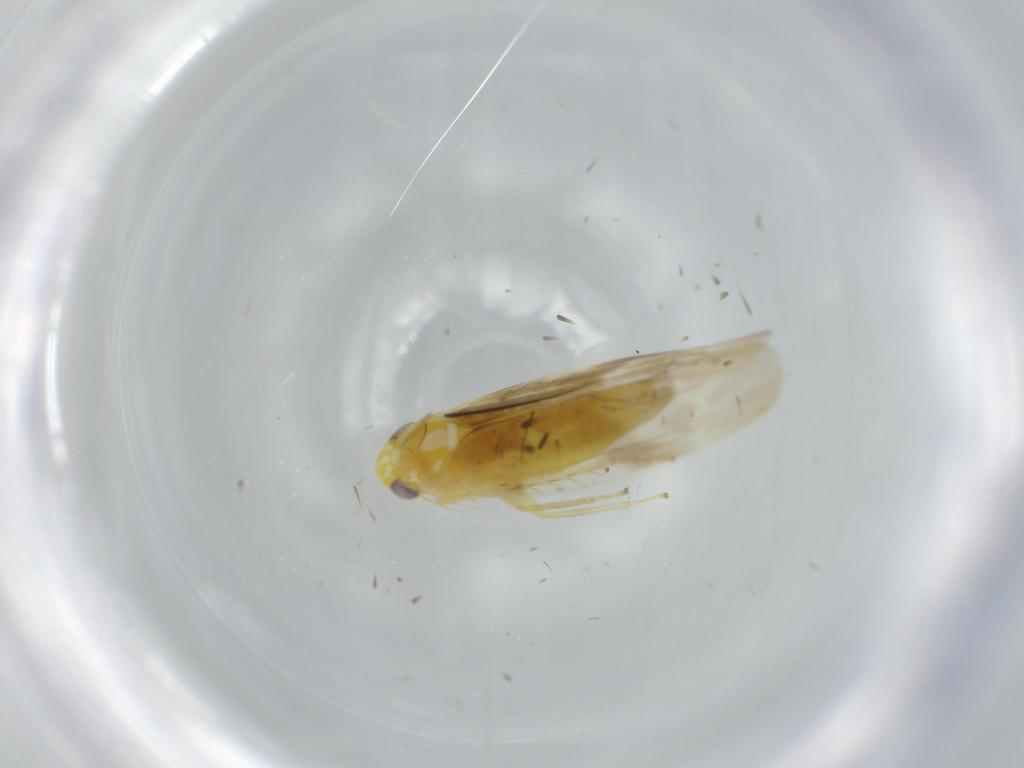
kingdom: Animalia
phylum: Arthropoda
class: Insecta
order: Hemiptera
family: Cicadellidae
